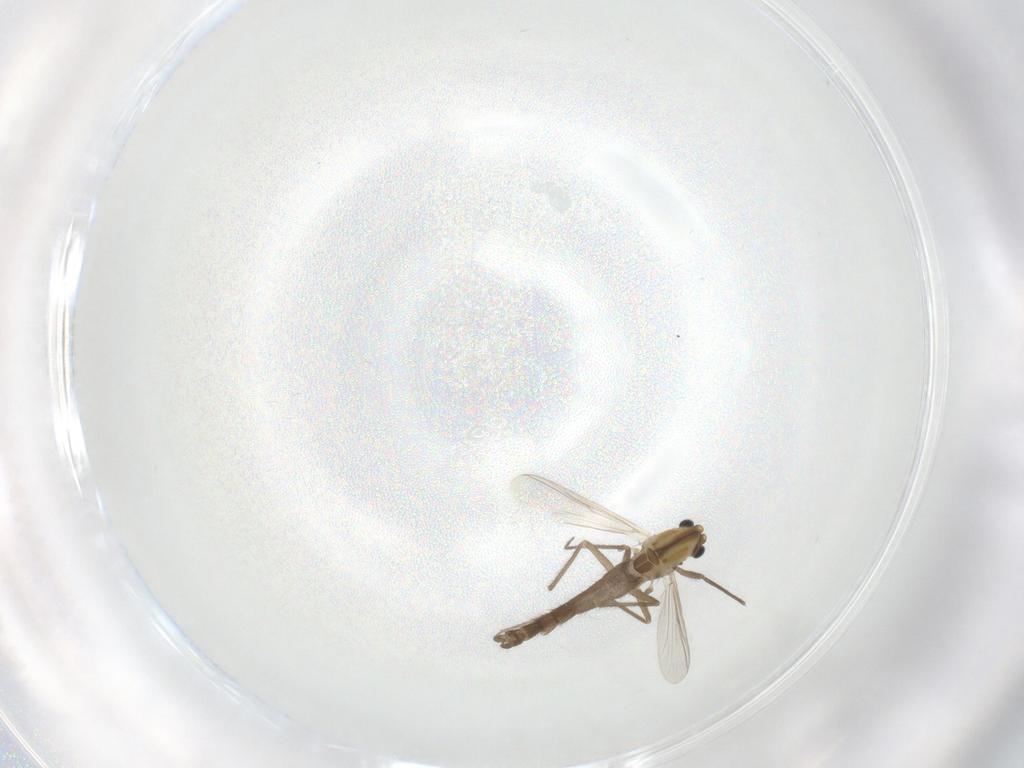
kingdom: Animalia
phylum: Arthropoda
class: Insecta
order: Diptera
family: Chironomidae
